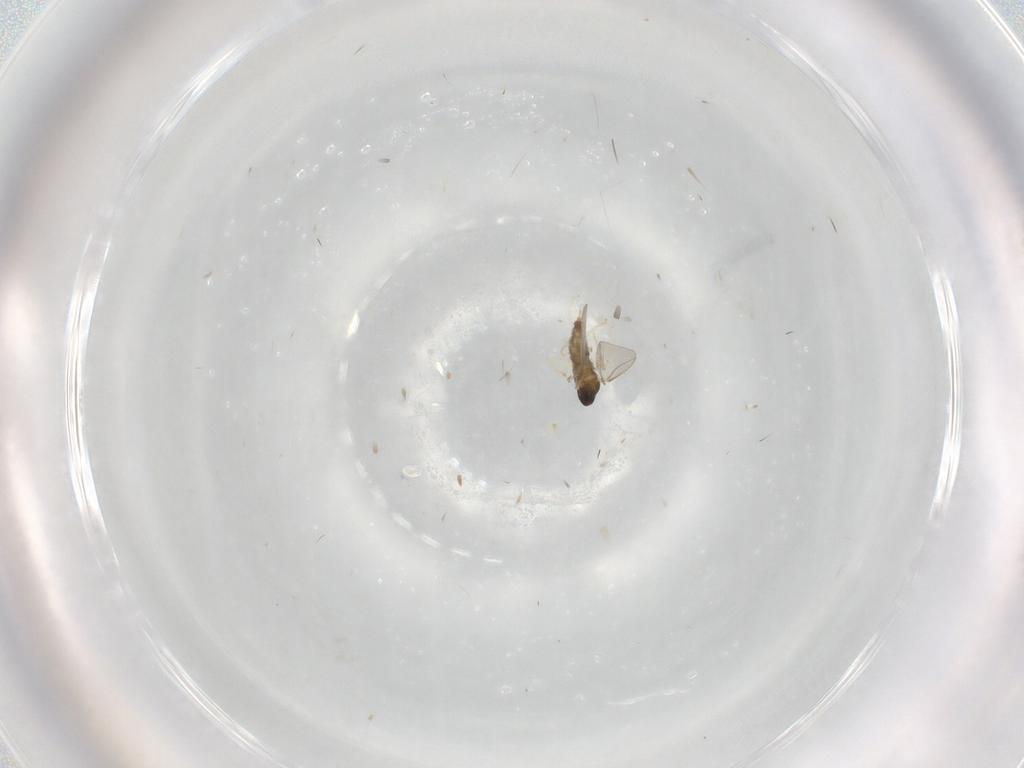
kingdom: Animalia
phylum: Arthropoda
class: Insecta
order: Diptera
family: Cecidomyiidae
